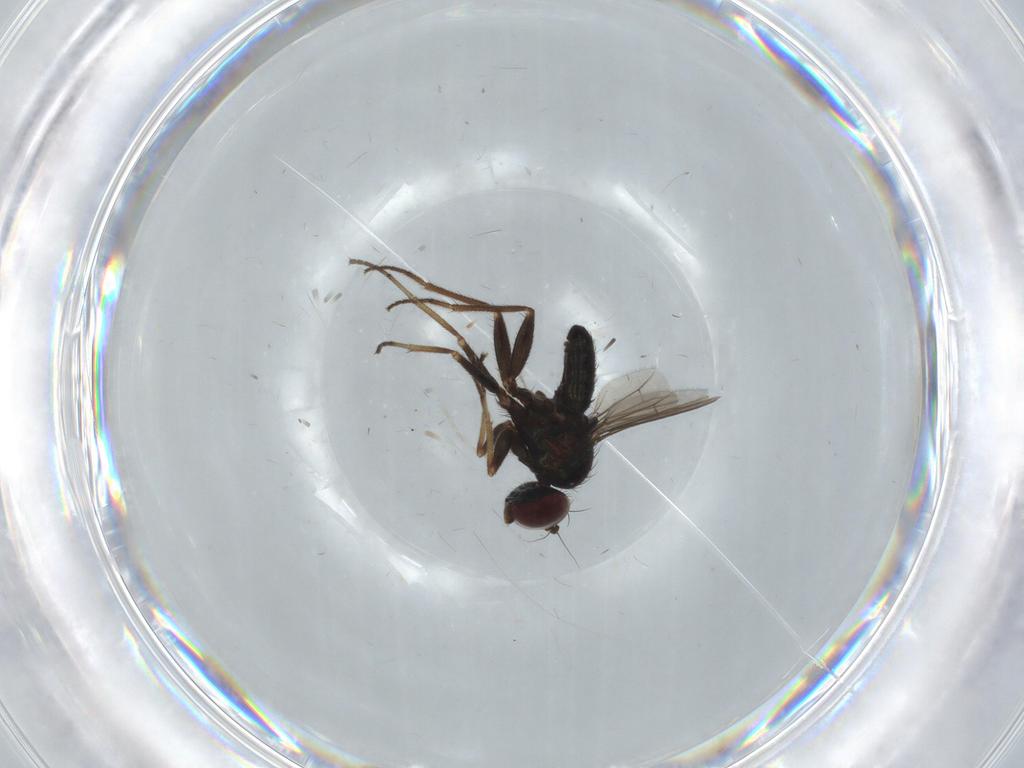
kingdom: Animalia
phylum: Arthropoda
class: Insecta
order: Diptera
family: Dolichopodidae
